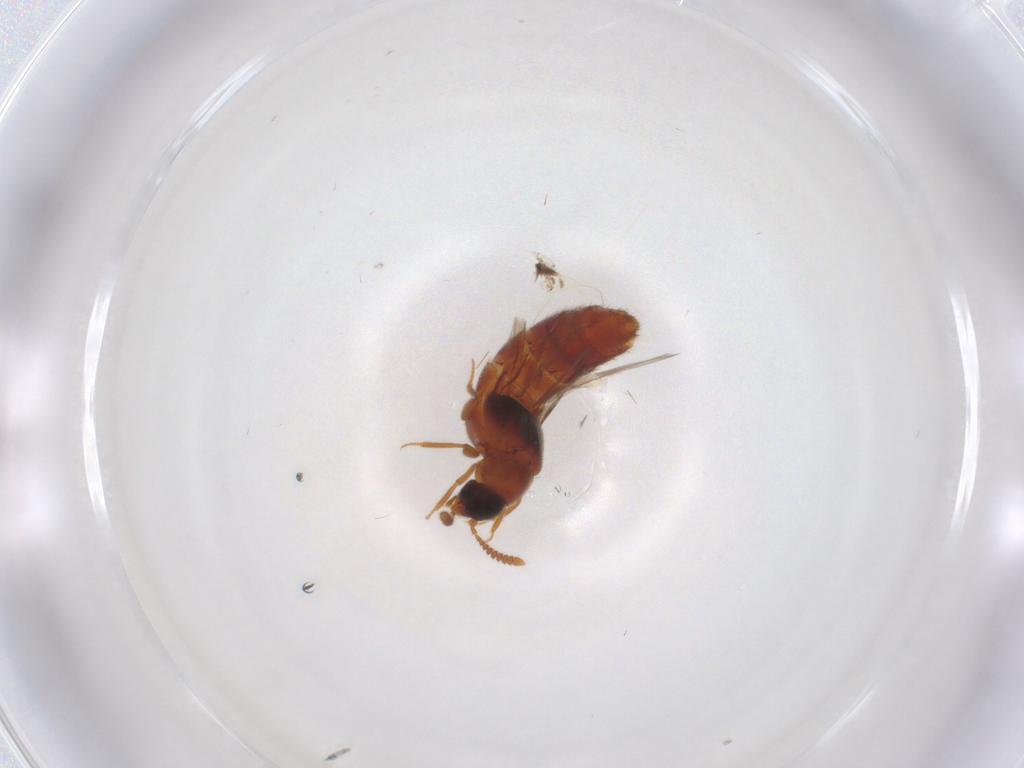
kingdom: Animalia
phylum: Arthropoda
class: Insecta
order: Coleoptera
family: Staphylinidae
